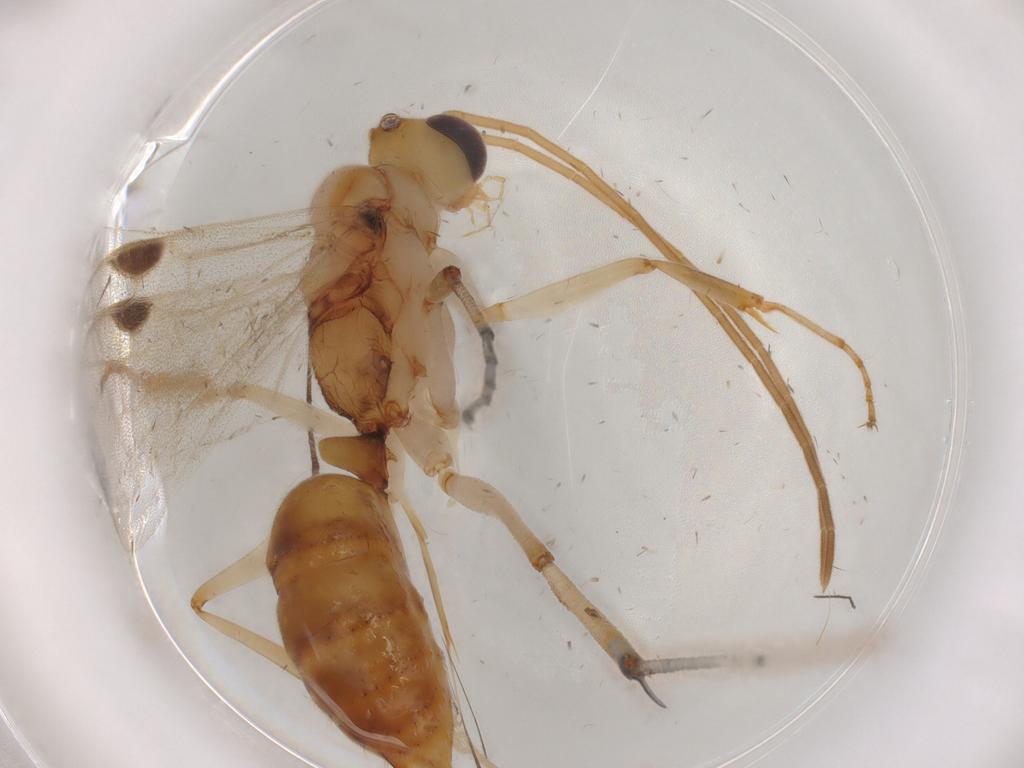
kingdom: Animalia
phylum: Arthropoda
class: Insecta
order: Hymenoptera
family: Formicidae
